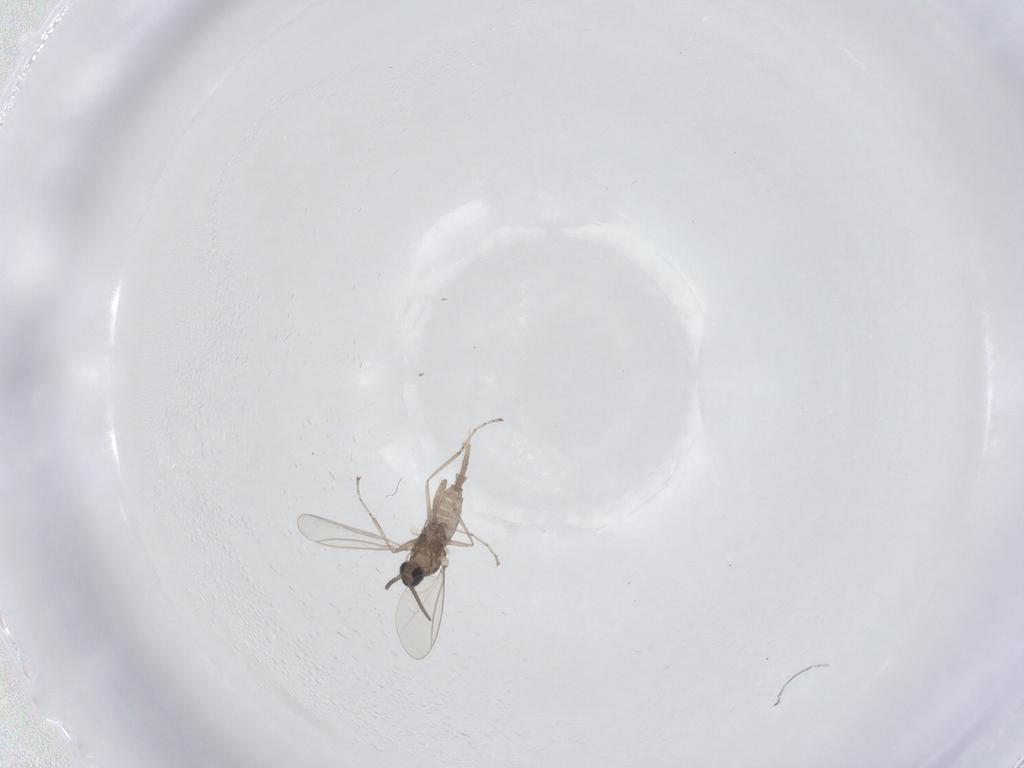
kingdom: Animalia
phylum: Arthropoda
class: Insecta
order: Diptera
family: Cecidomyiidae
